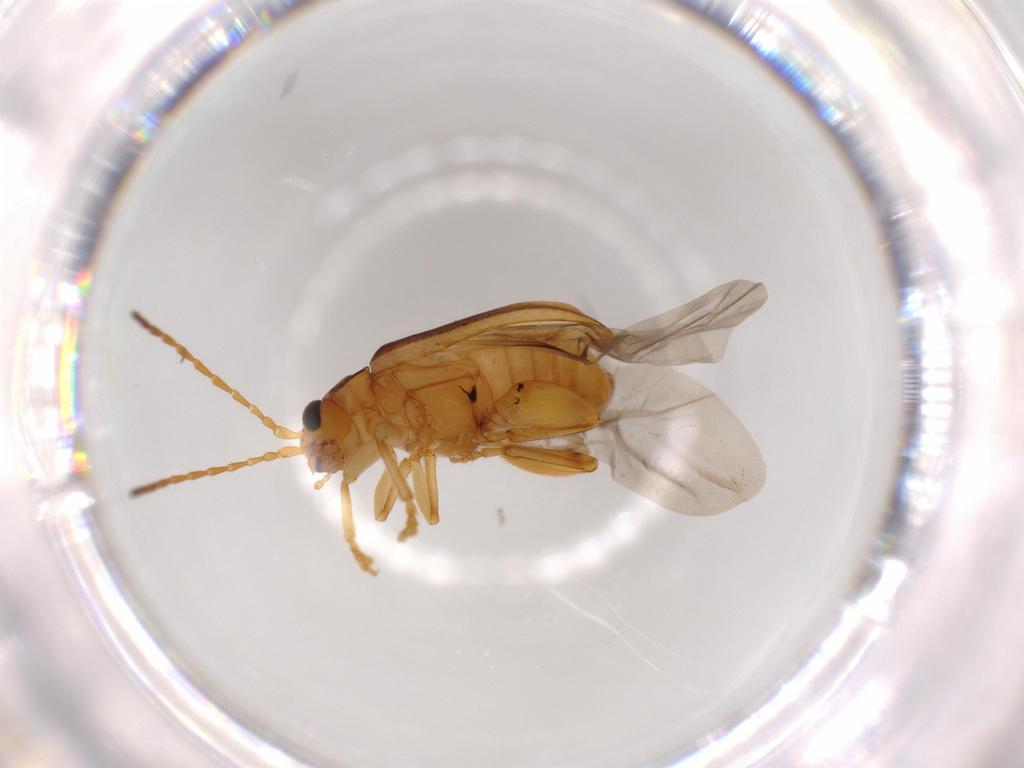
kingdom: Animalia
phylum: Arthropoda
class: Insecta
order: Coleoptera
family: Chrysomelidae
